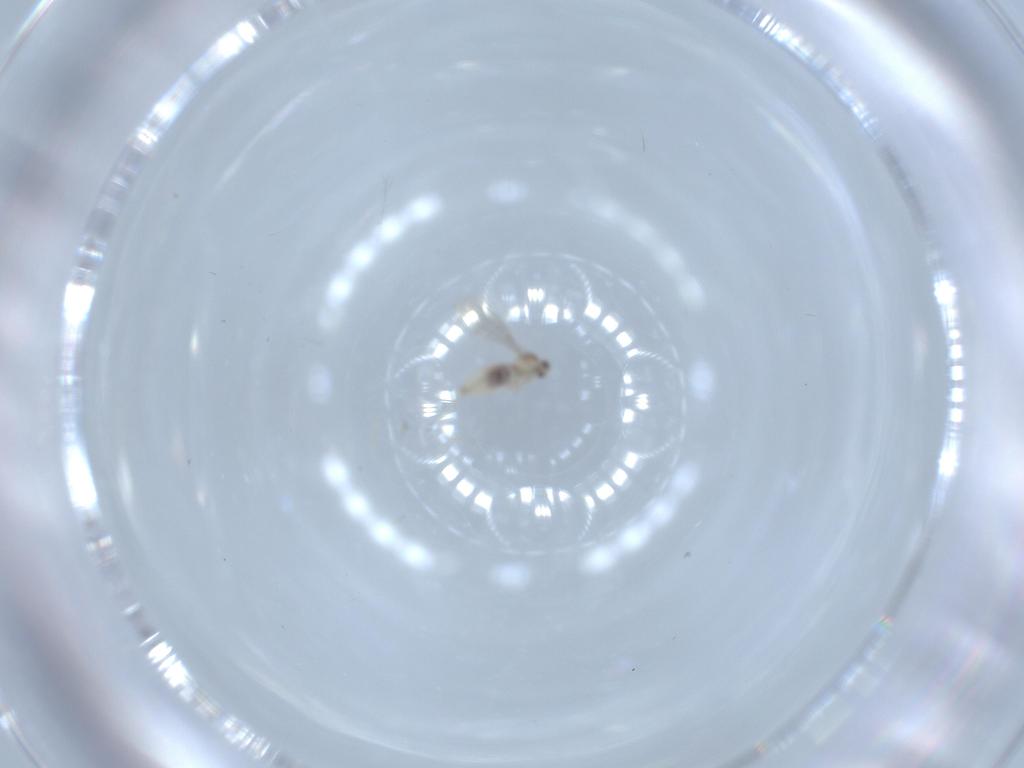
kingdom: Animalia
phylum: Arthropoda
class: Insecta
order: Diptera
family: Cecidomyiidae
